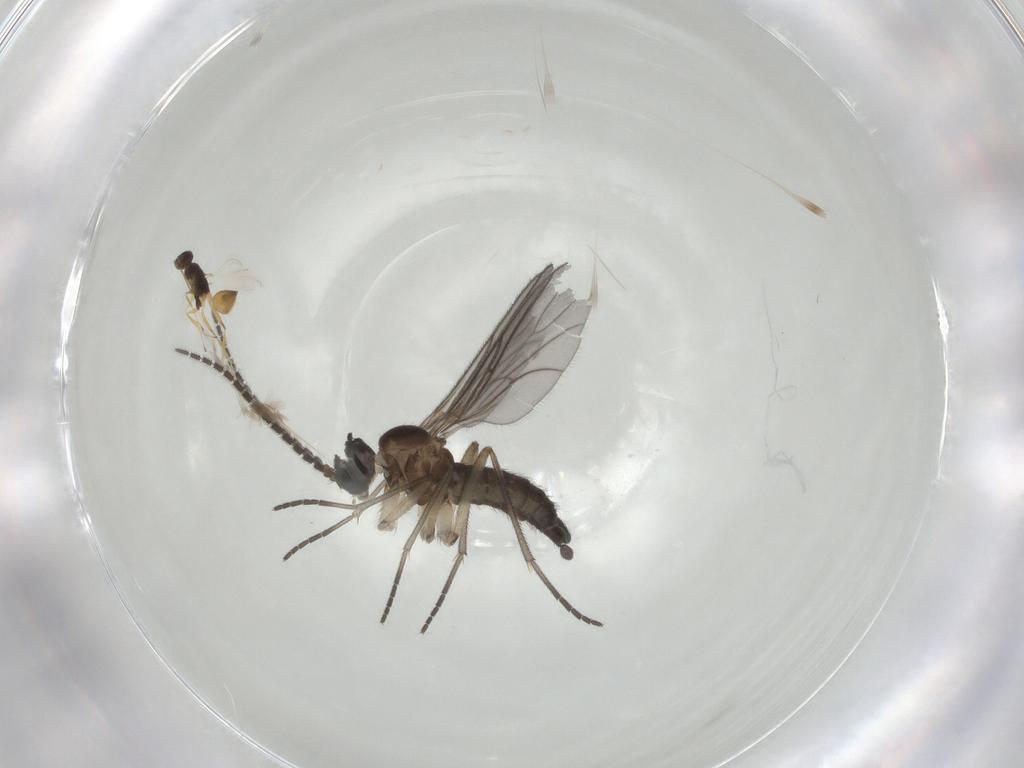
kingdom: Animalia
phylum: Arthropoda
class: Insecta
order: Diptera
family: Sciaridae
